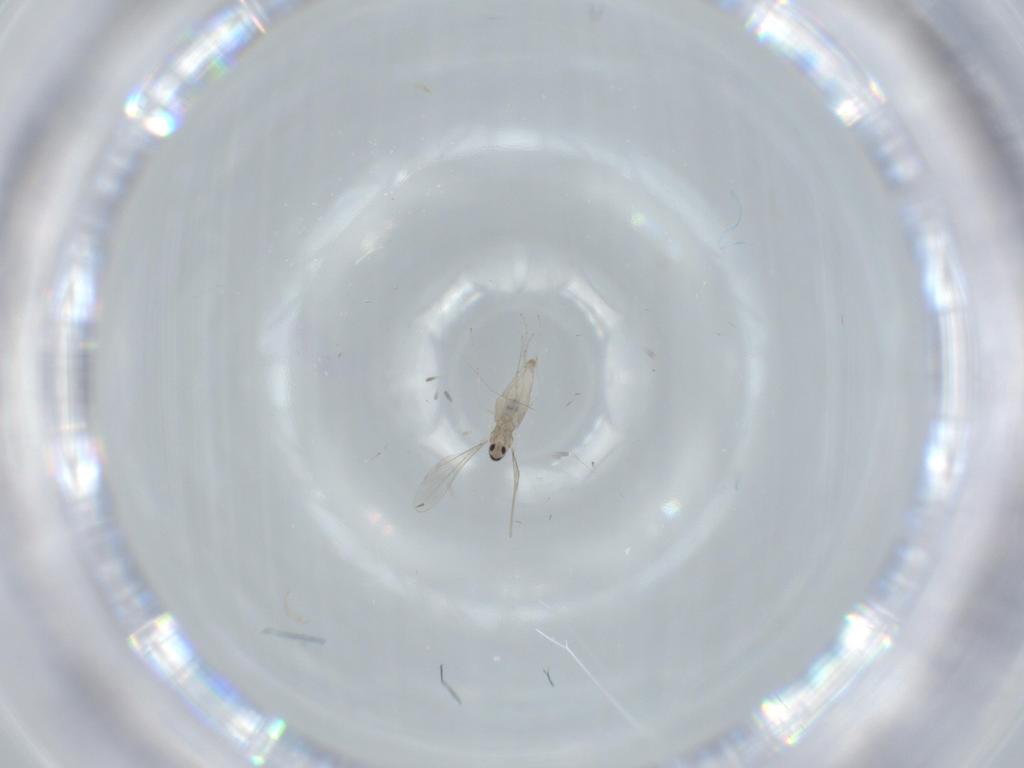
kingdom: Animalia
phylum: Arthropoda
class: Insecta
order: Diptera
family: Cecidomyiidae
